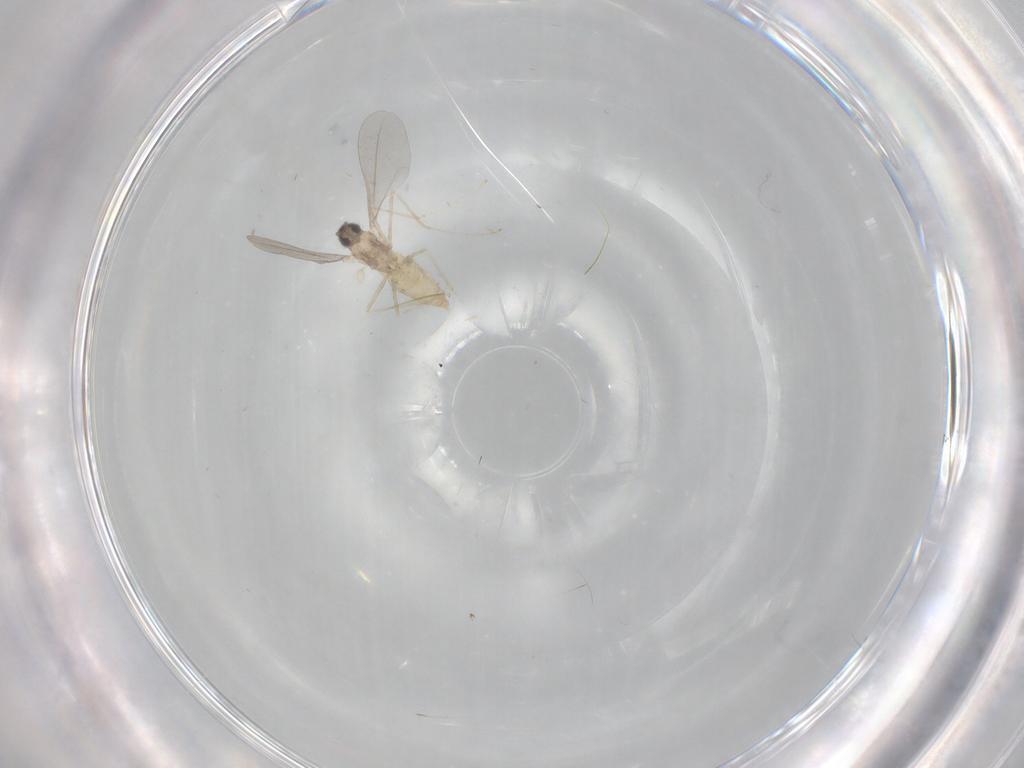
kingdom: Animalia
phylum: Arthropoda
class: Insecta
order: Diptera
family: Cecidomyiidae
